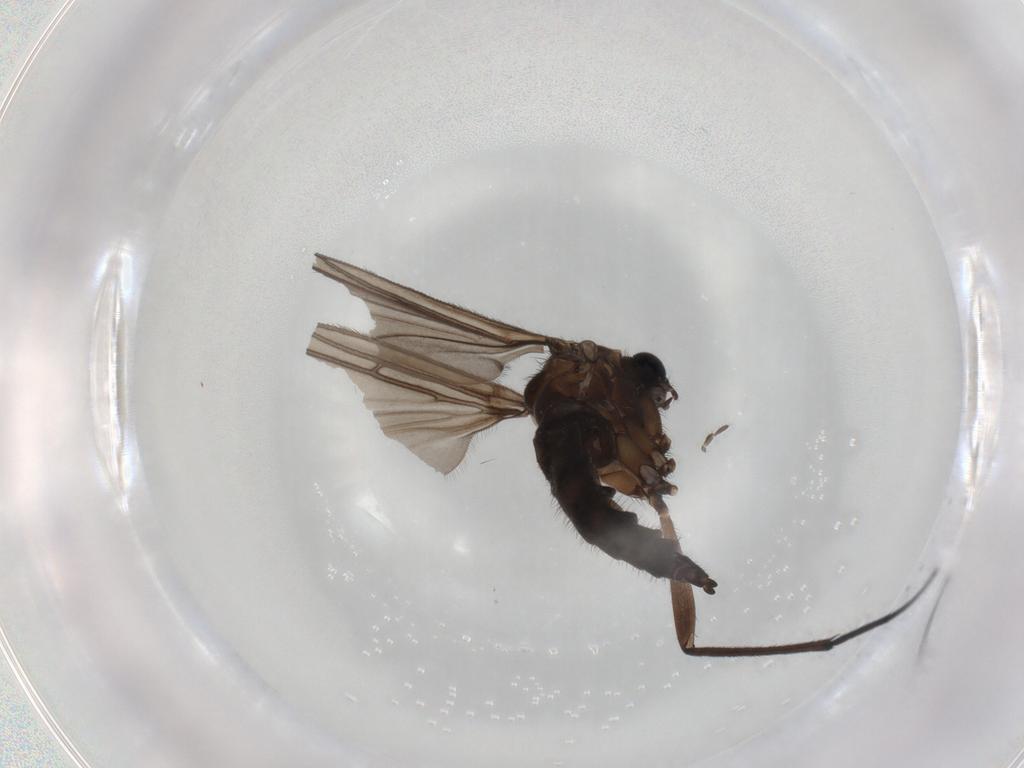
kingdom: Animalia
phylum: Arthropoda
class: Insecta
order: Diptera
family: Sciaridae
